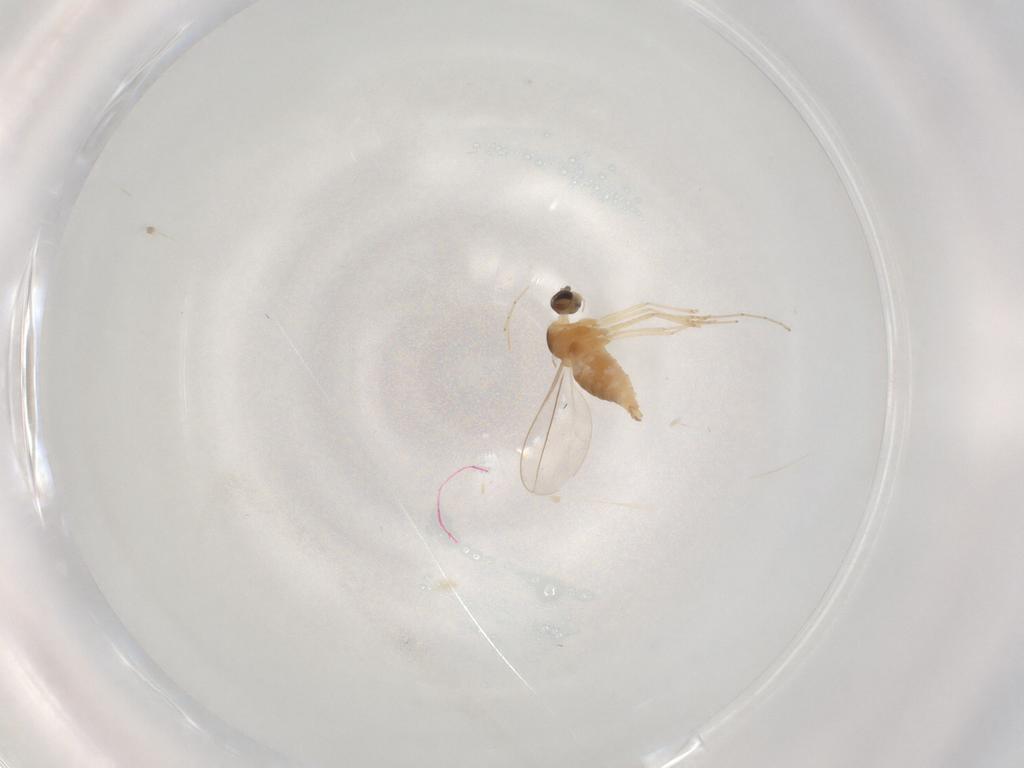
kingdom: Animalia
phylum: Arthropoda
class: Insecta
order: Diptera
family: Cecidomyiidae
